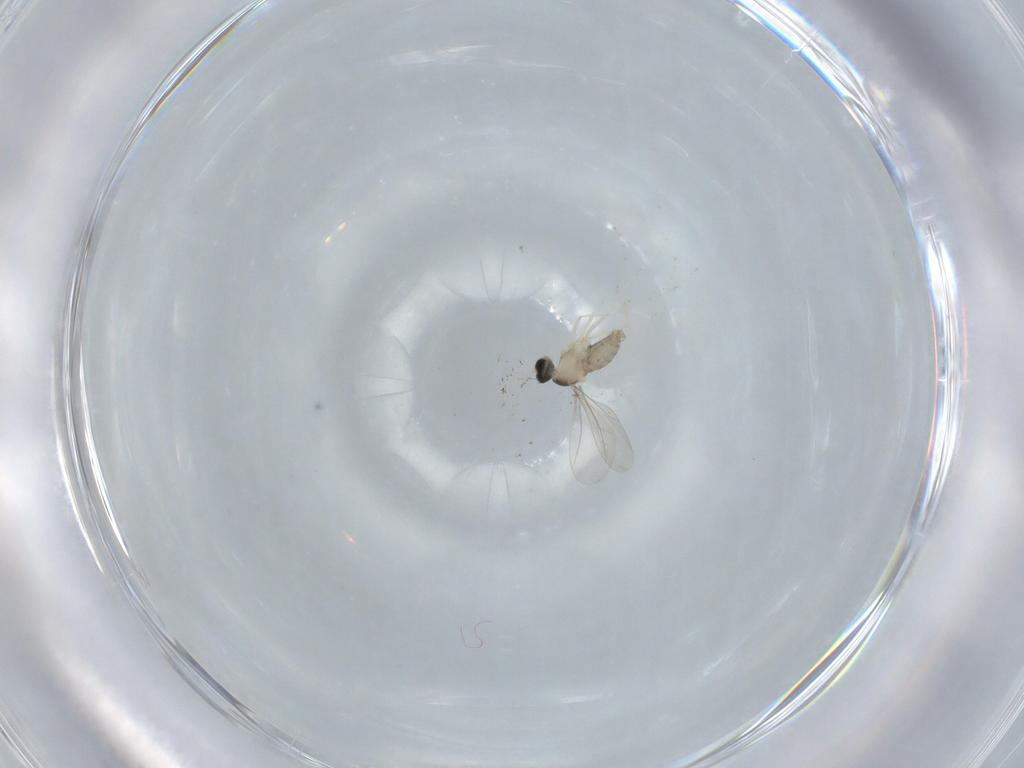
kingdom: Animalia
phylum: Arthropoda
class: Insecta
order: Diptera
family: Cecidomyiidae
